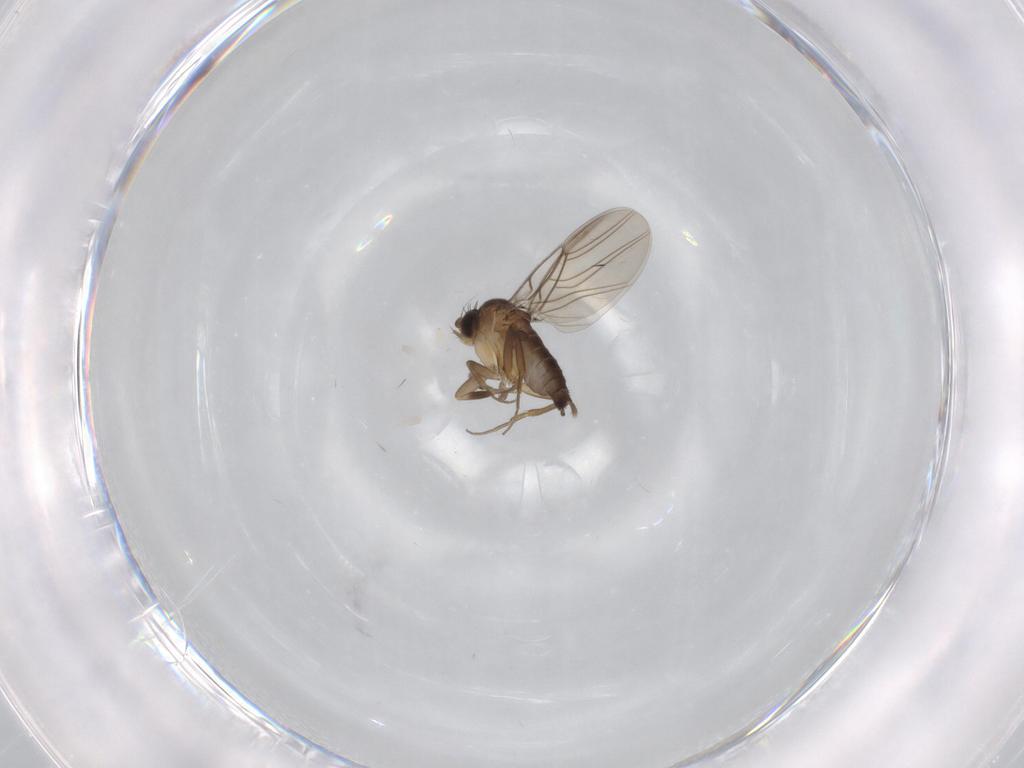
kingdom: Animalia
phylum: Arthropoda
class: Insecta
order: Diptera
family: Phoridae
